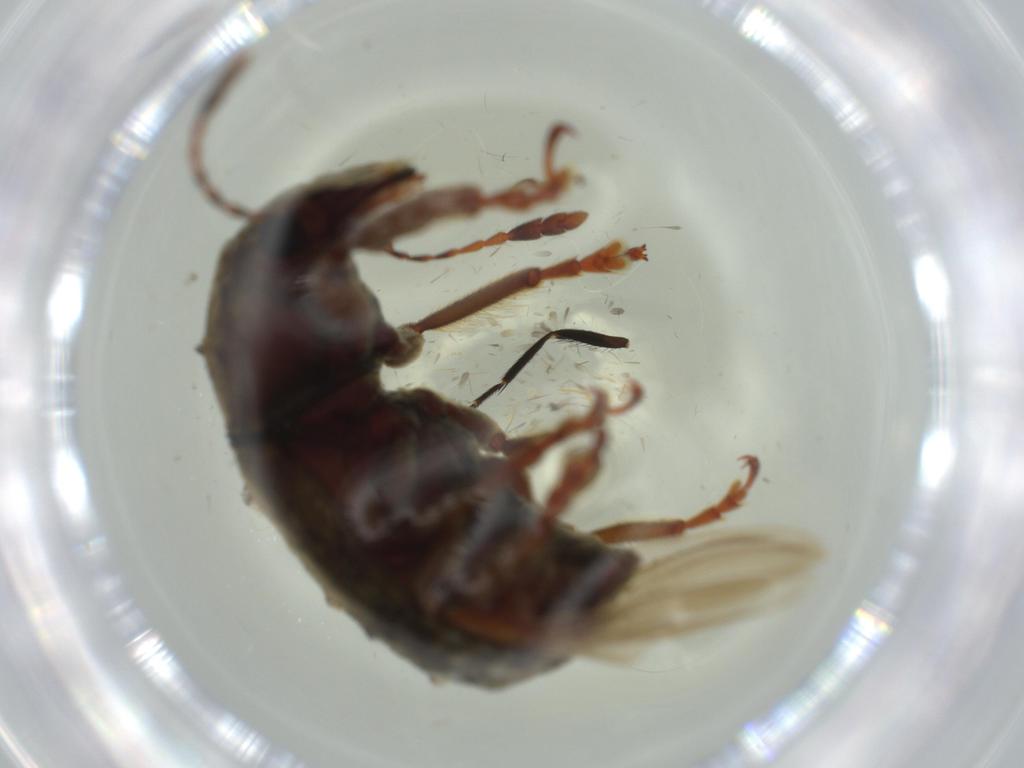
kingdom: Animalia
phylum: Arthropoda
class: Insecta
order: Coleoptera
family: Anthribidae
